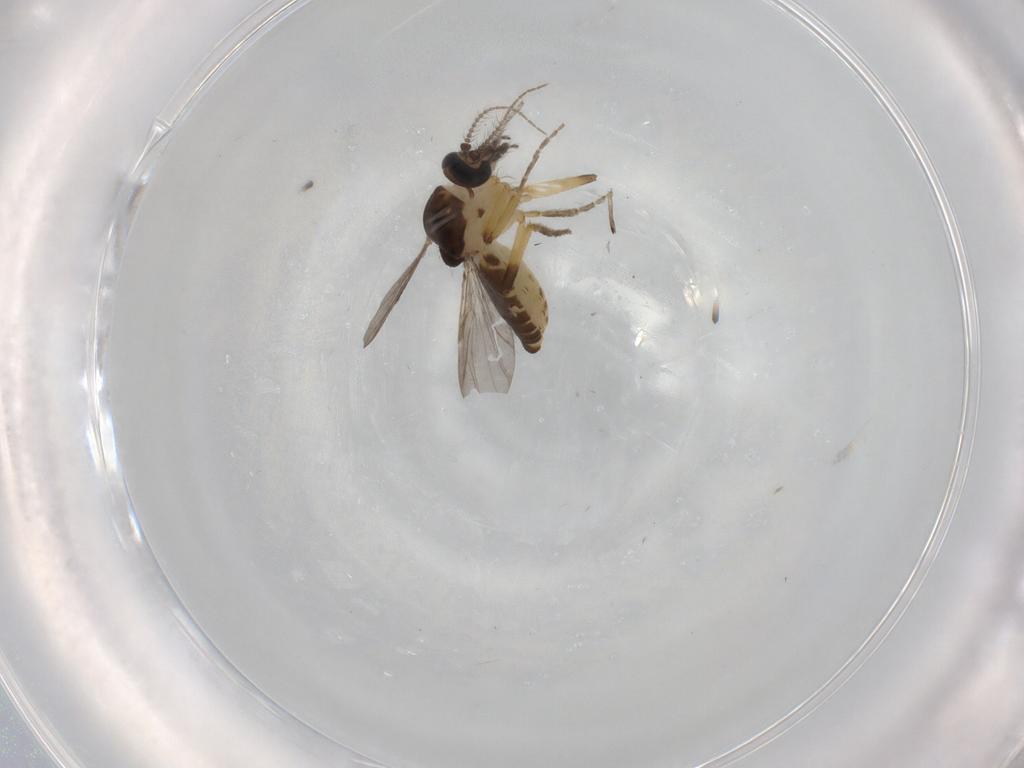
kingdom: Animalia
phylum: Arthropoda
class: Insecta
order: Diptera
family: Ceratopogonidae
